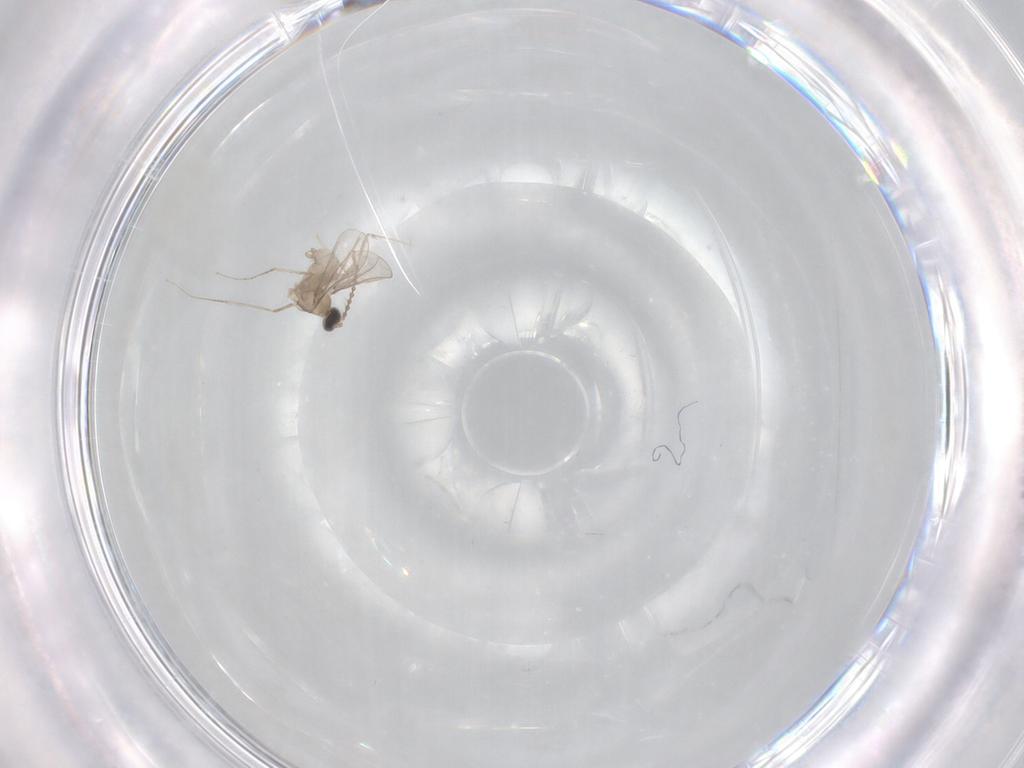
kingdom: Animalia
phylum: Arthropoda
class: Insecta
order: Diptera
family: Cecidomyiidae
